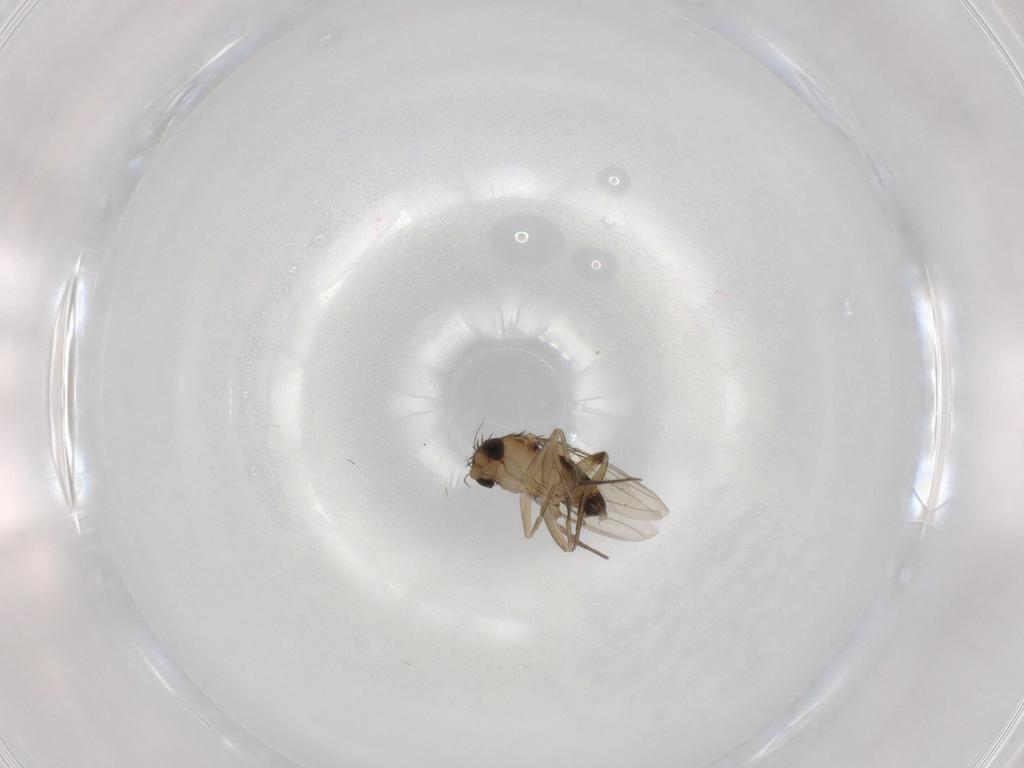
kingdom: Animalia
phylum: Arthropoda
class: Insecta
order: Diptera
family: Phoridae
